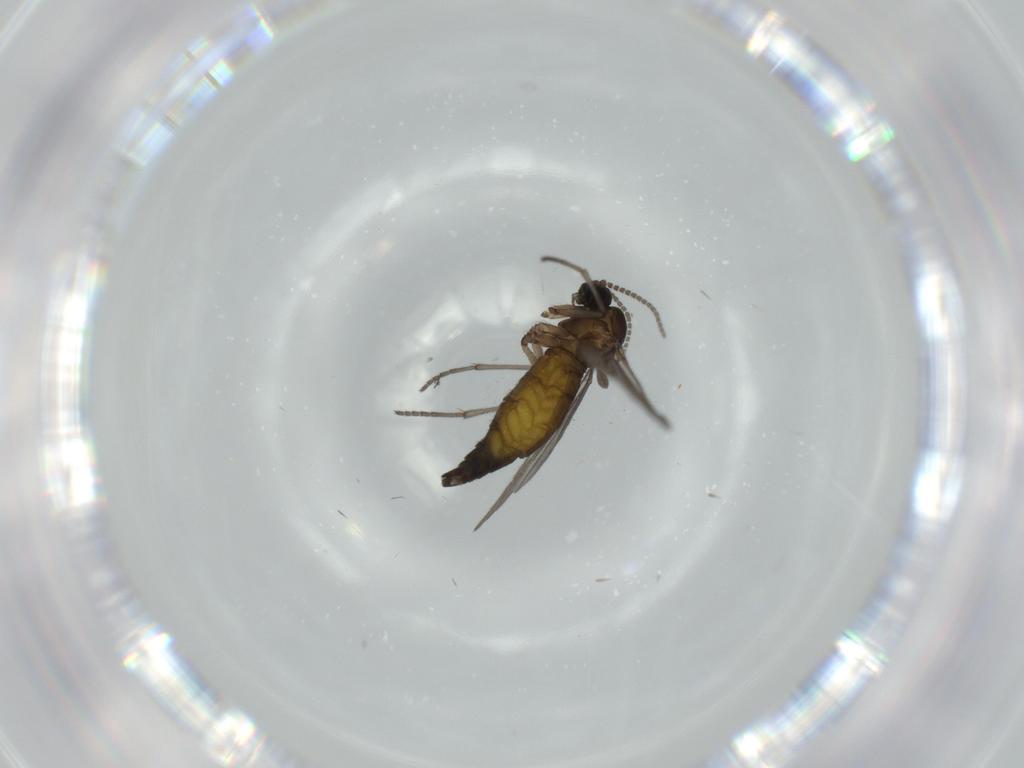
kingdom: Animalia
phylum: Arthropoda
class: Insecta
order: Diptera
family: Sciaridae
